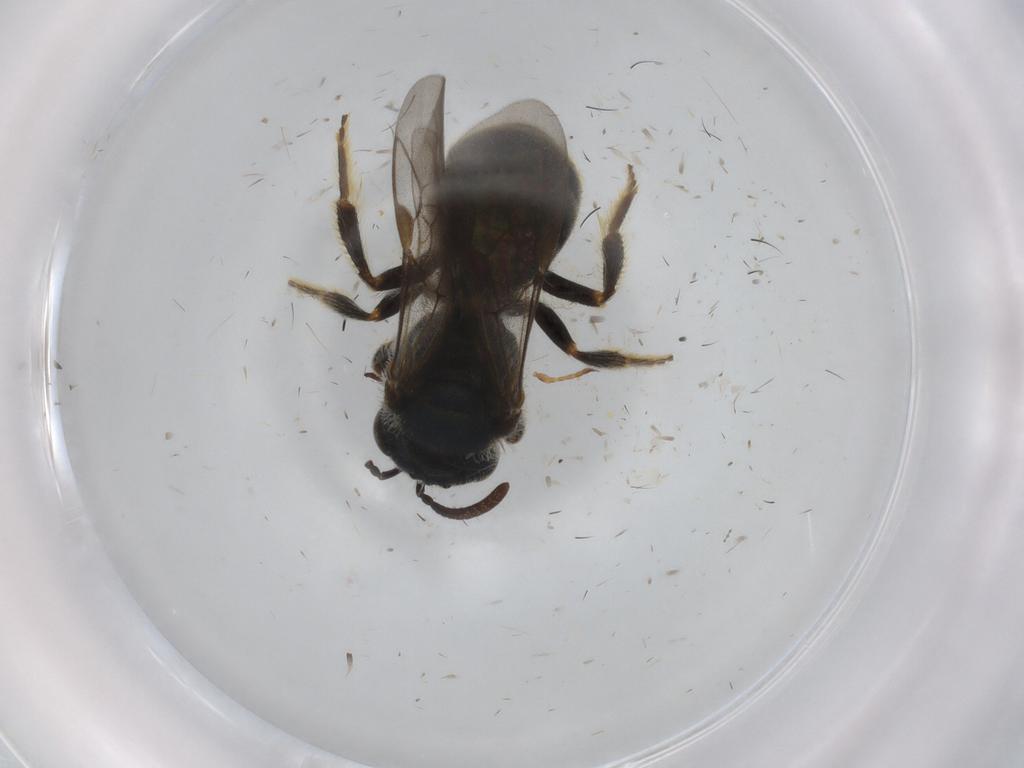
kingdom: Animalia
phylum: Arthropoda
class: Insecta
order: Hymenoptera
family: Formicidae
